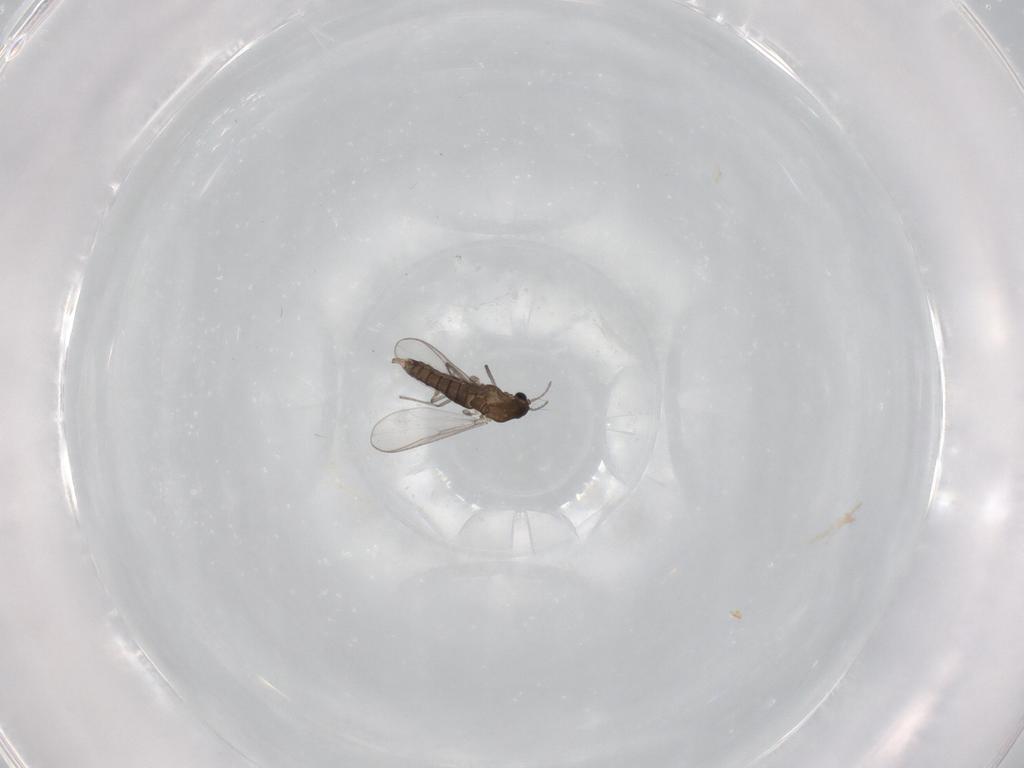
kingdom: Animalia
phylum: Arthropoda
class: Insecta
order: Diptera
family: Chironomidae
